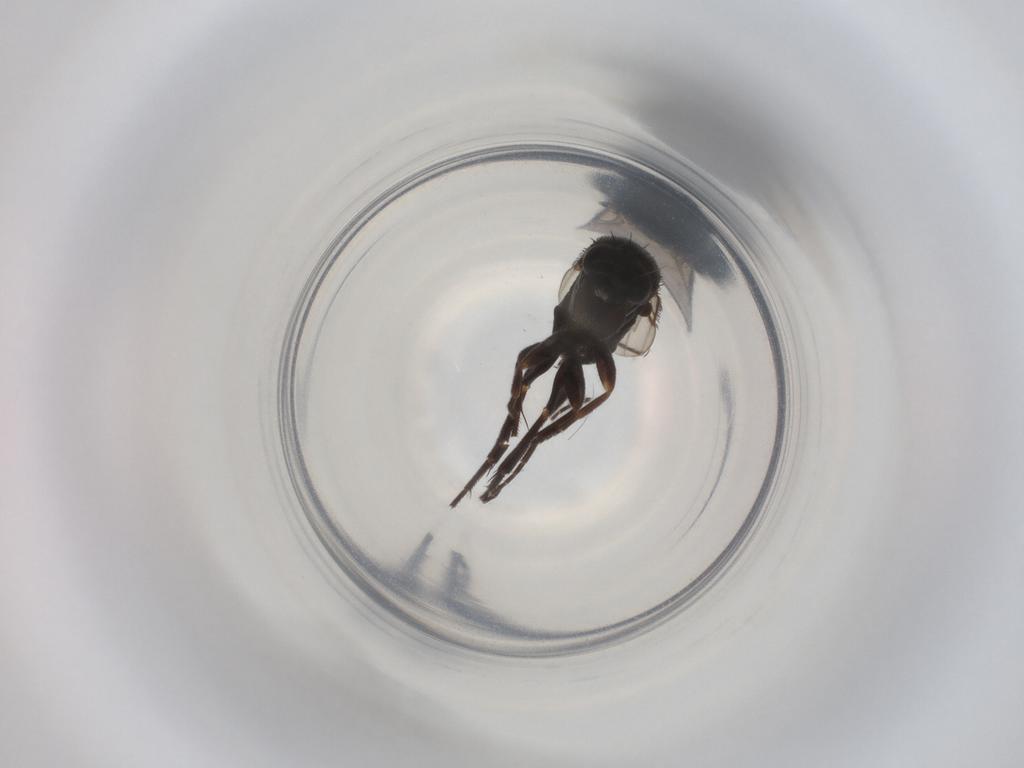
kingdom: Animalia
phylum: Arthropoda
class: Insecta
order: Diptera
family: Phoridae
